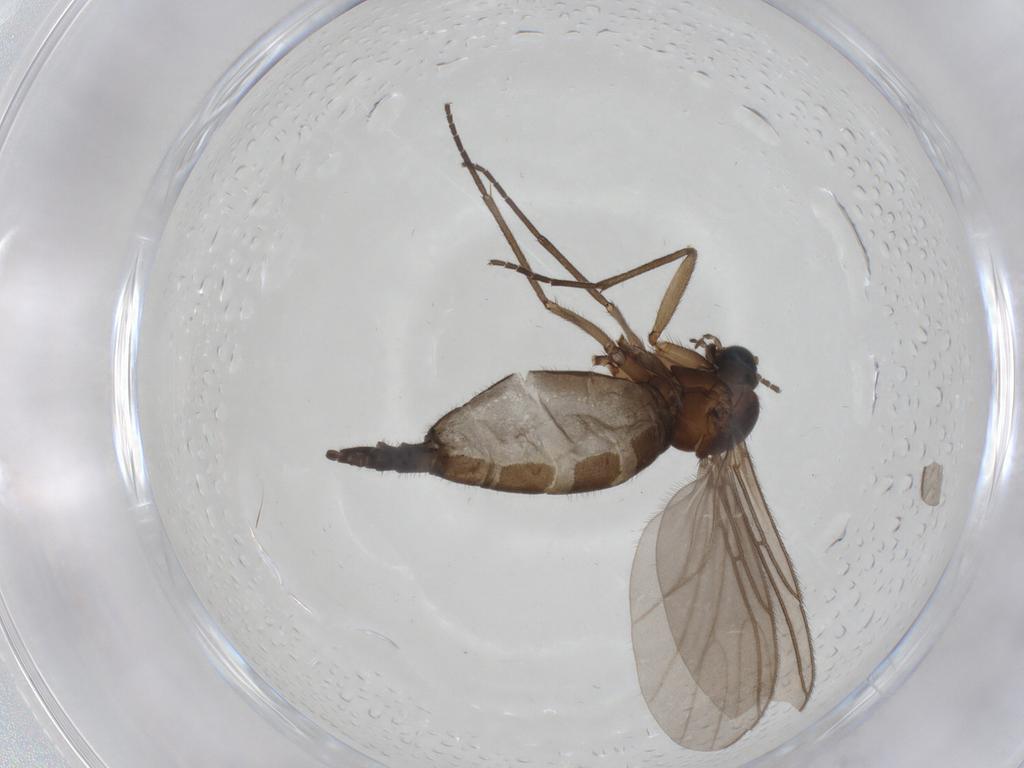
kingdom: Animalia
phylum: Arthropoda
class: Insecta
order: Diptera
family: Sciaridae
